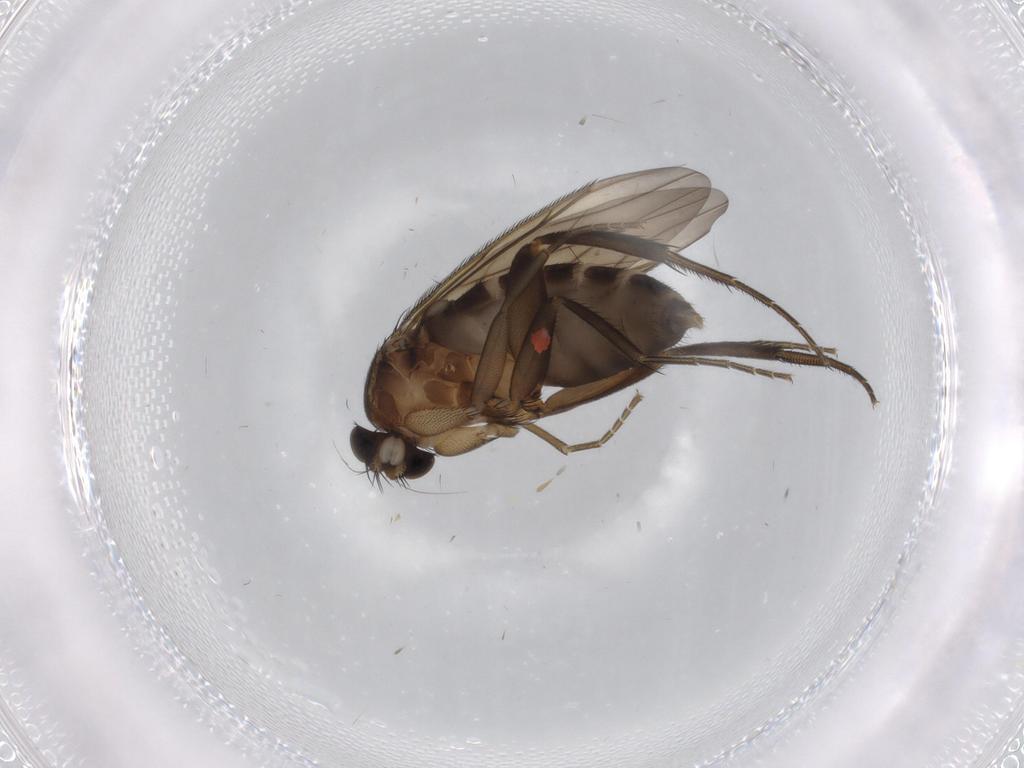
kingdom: Animalia
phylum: Arthropoda
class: Insecta
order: Diptera
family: Phoridae
